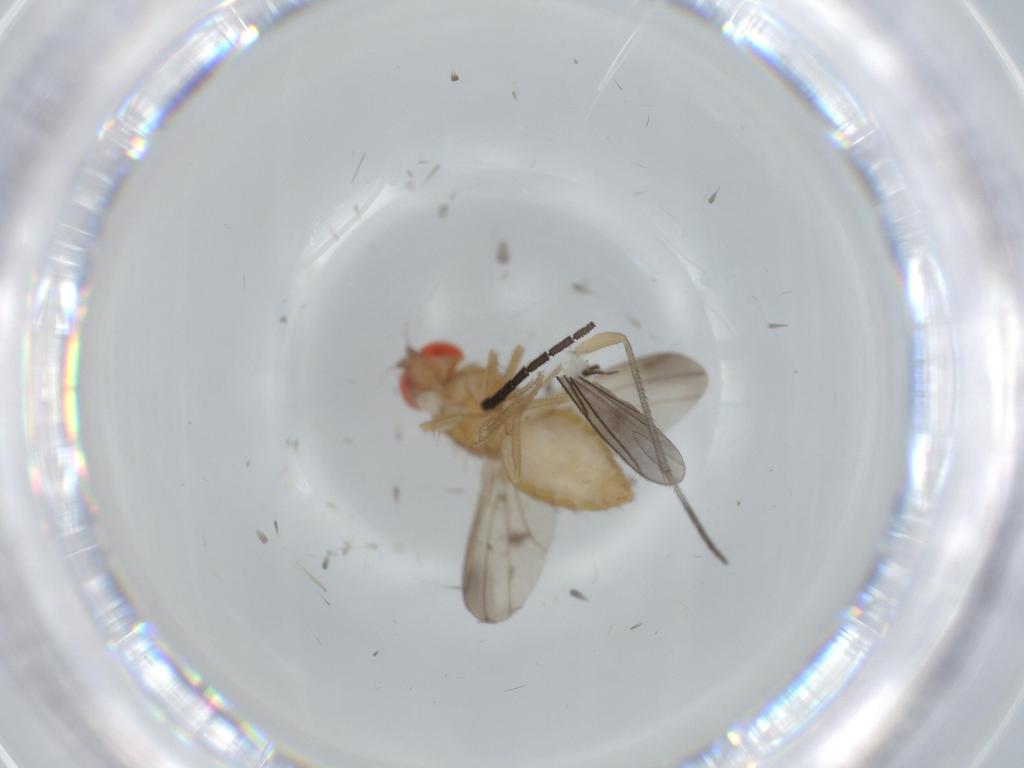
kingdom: Animalia
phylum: Arthropoda
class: Insecta
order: Diptera
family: Drosophilidae
